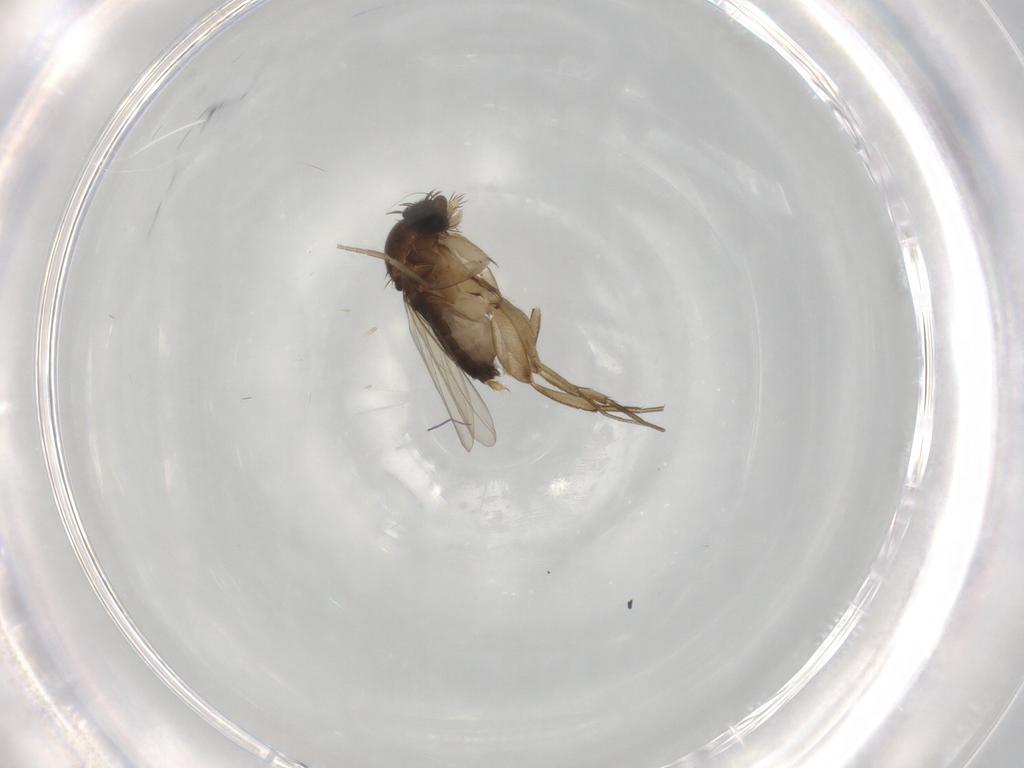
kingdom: Animalia
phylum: Arthropoda
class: Insecta
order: Diptera
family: Phoridae
